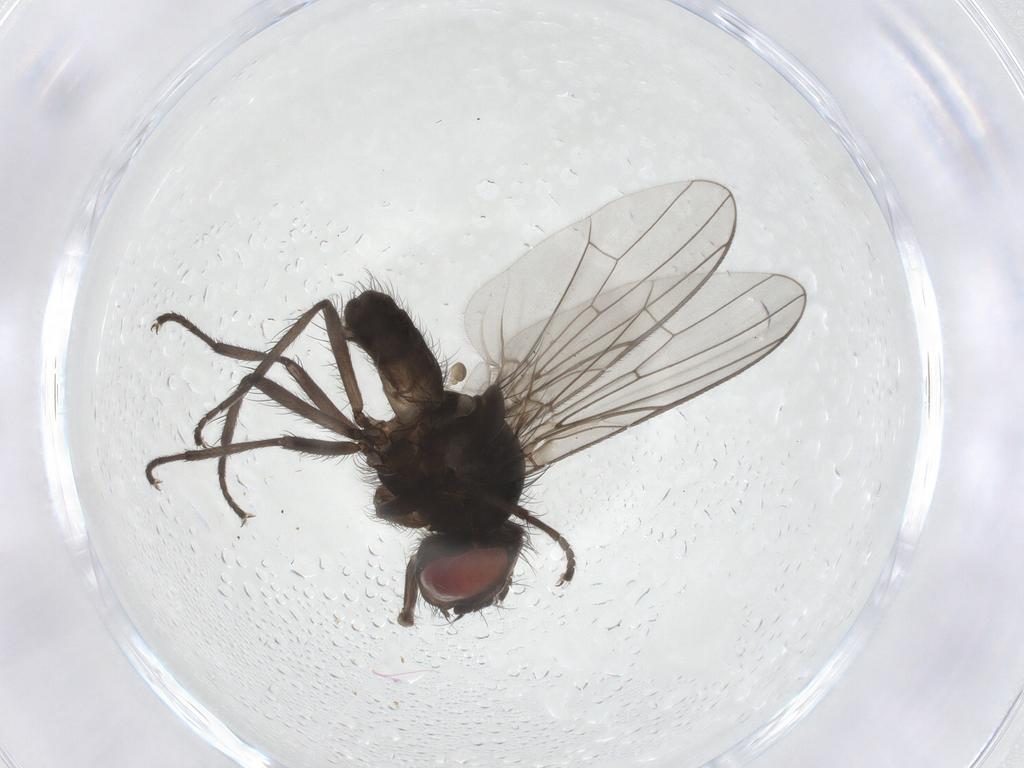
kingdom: Animalia
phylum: Arthropoda
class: Insecta
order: Diptera
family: Anthomyiidae
